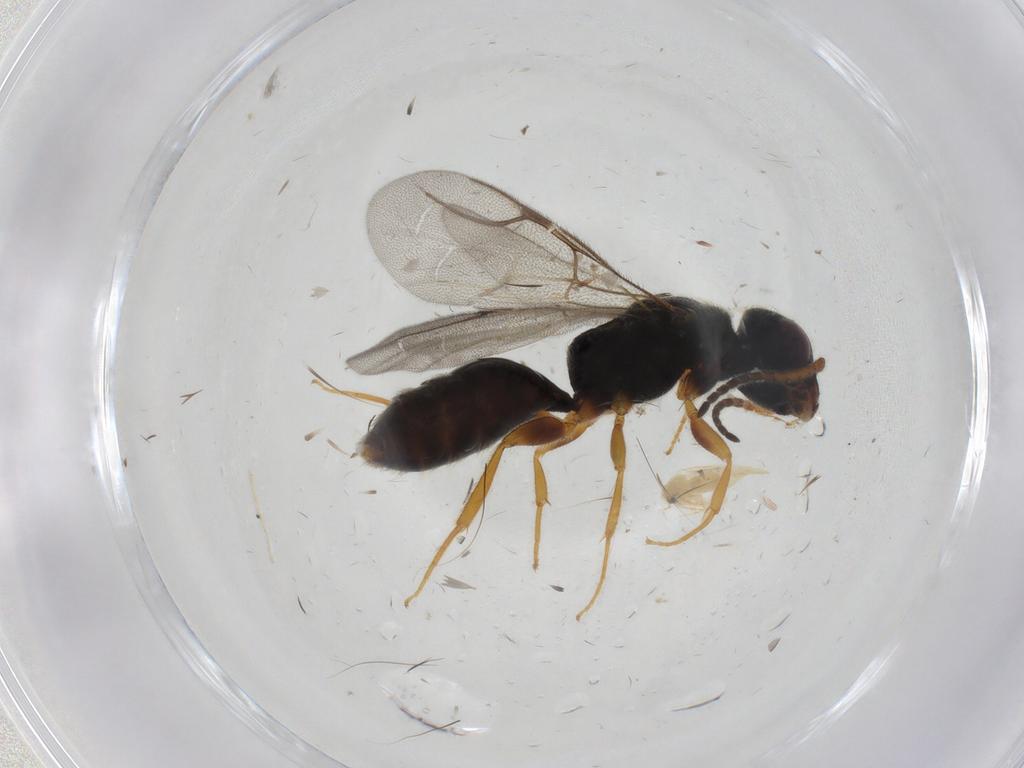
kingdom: Animalia
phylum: Arthropoda
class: Insecta
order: Hymenoptera
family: Bethylidae
